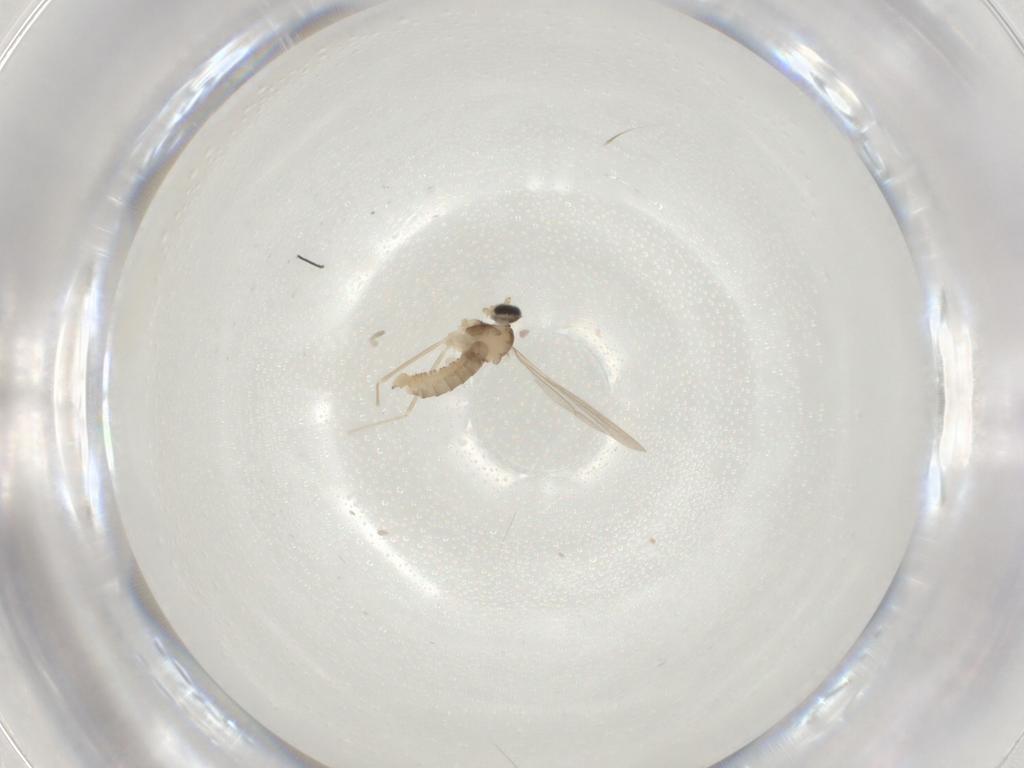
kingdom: Animalia
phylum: Arthropoda
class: Insecta
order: Diptera
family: Cecidomyiidae
